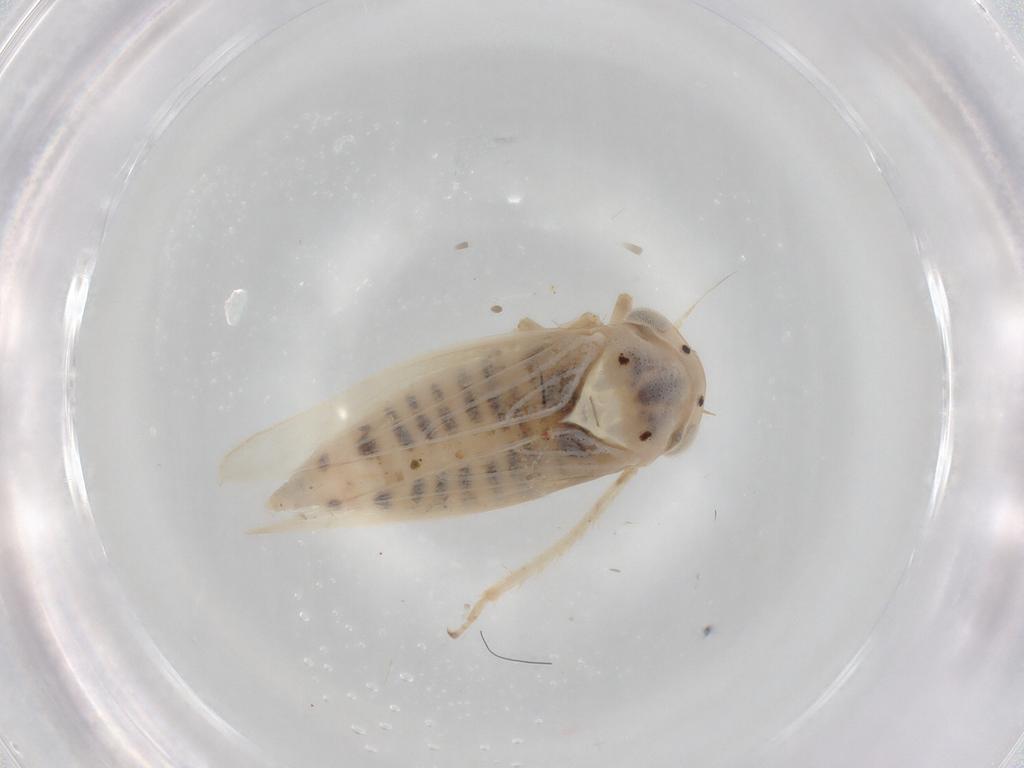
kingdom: Animalia
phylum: Arthropoda
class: Insecta
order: Hemiptera
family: Cicadellidae
